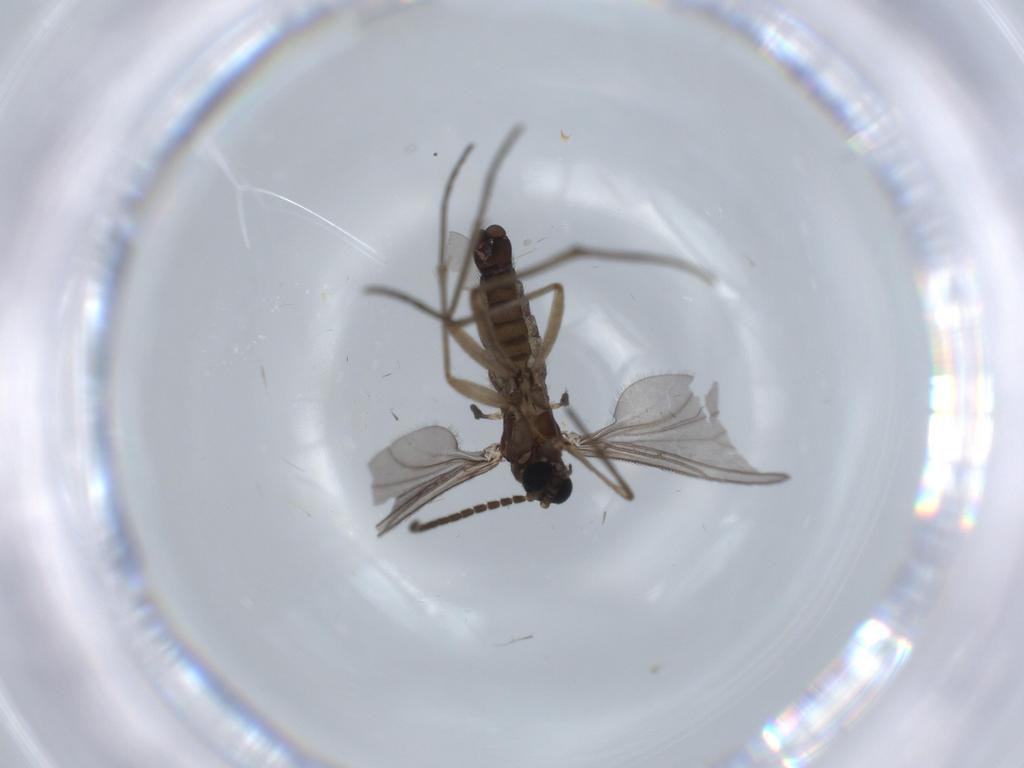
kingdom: Animalia
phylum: Arthropoda
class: Insecta
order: Diptera
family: Sciaridae
